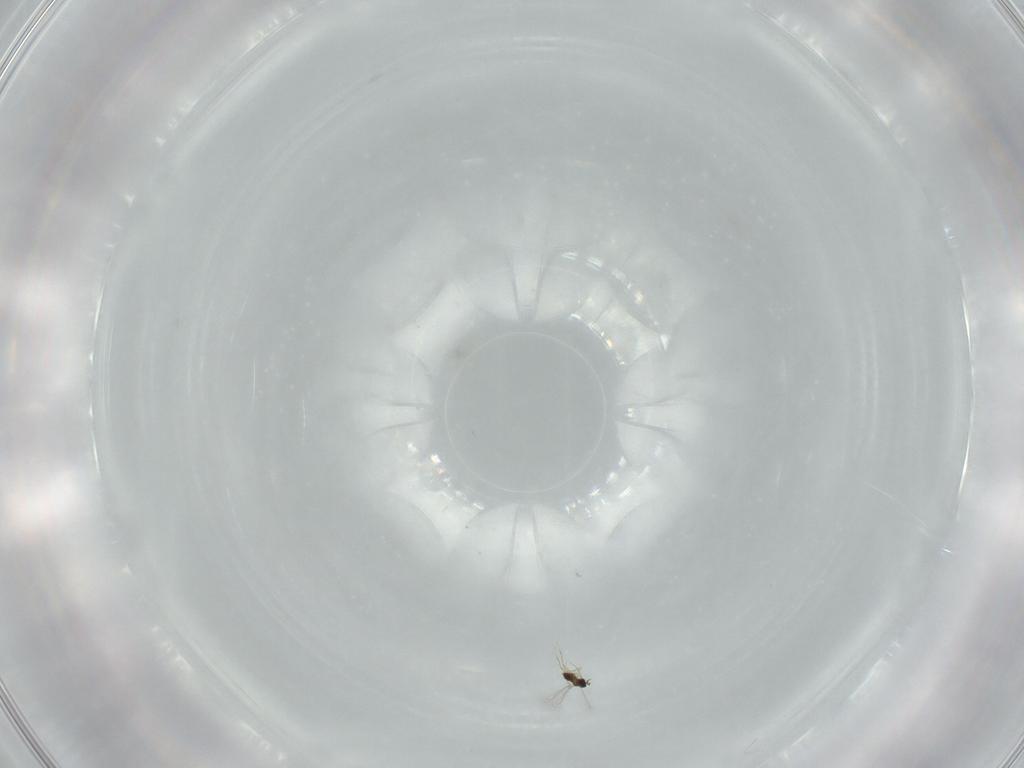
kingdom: Animalia
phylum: Arthropoda
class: Insecta
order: Hymenoptera
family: Mymaridae
